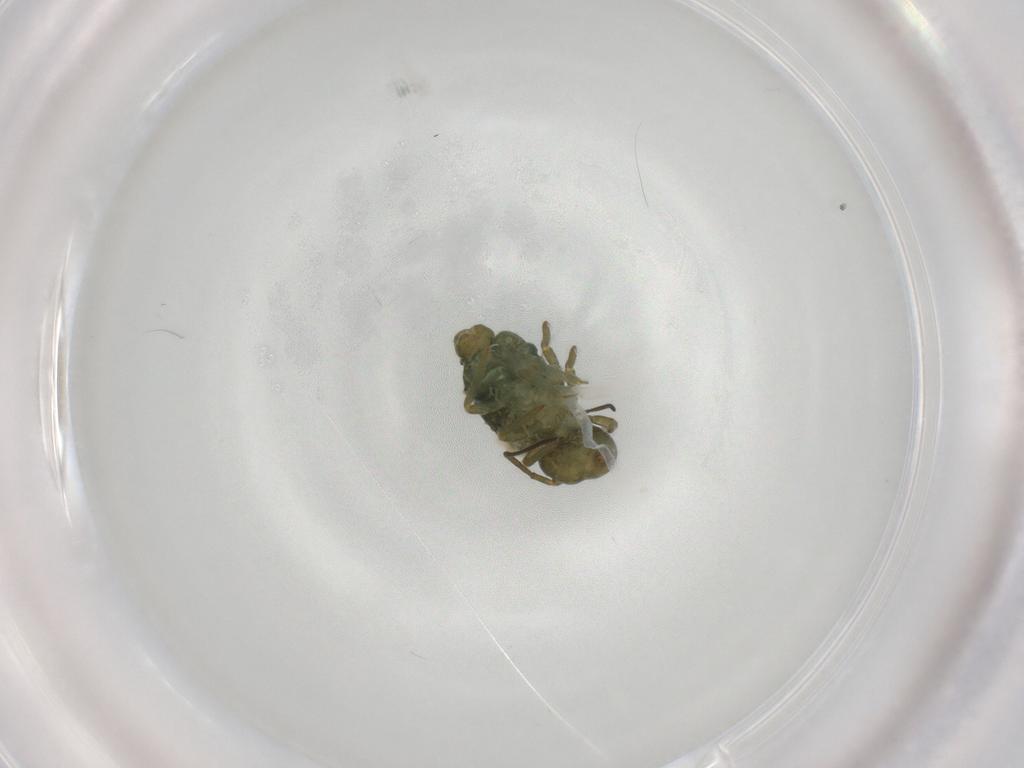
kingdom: Animalia
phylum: Arthropoda
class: Collembola
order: Symphypleona
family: Sminthuridae
